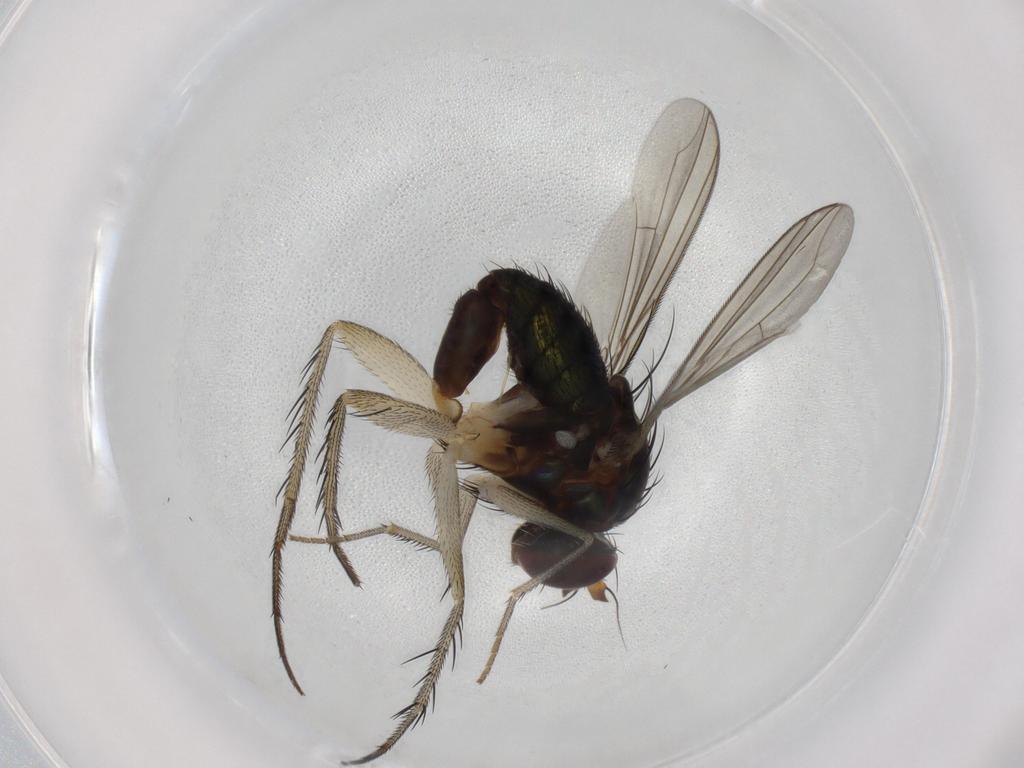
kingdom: Animalia
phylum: Arthropoda
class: Insecta
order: Diptera
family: Dolichopodidae
